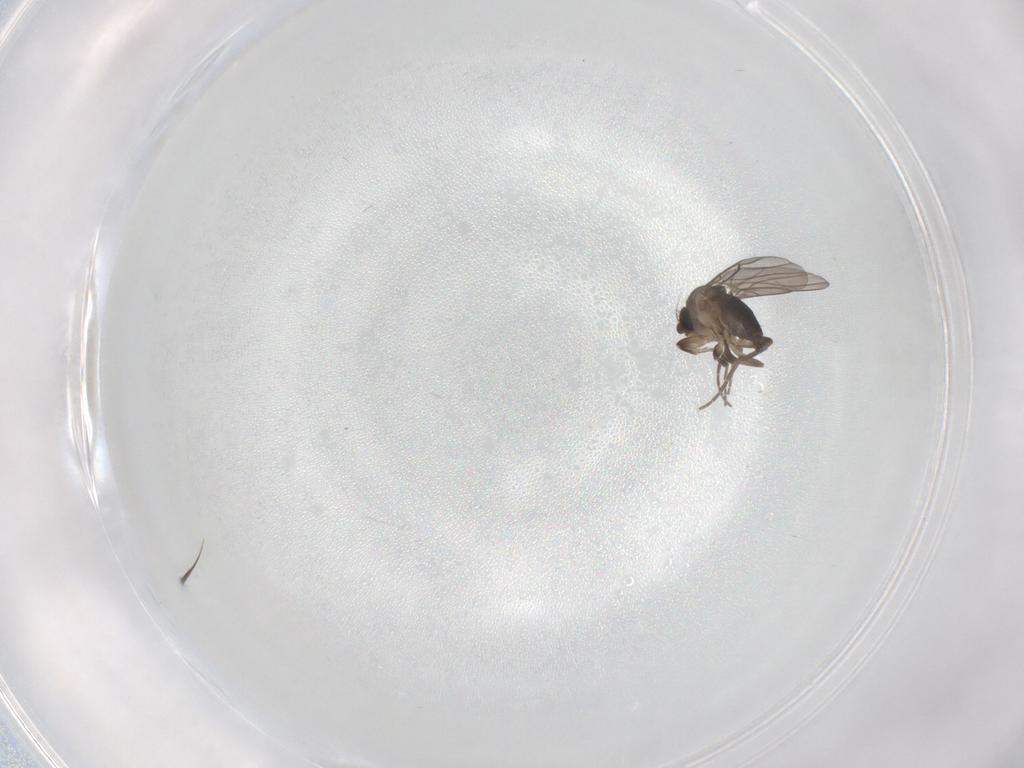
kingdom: Animalia
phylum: Arthropoda
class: Insecta
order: Diptera
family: Phoridae
